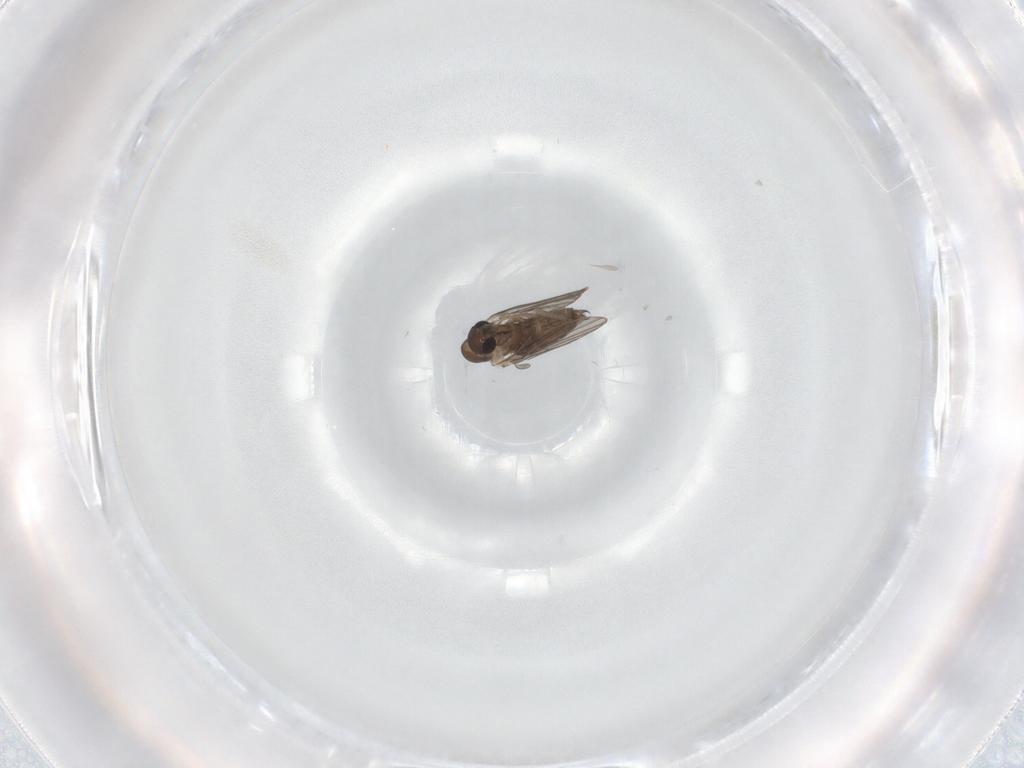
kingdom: Animalia
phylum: Arthropoda
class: Insecta
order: Diptera
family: Psychodidae
